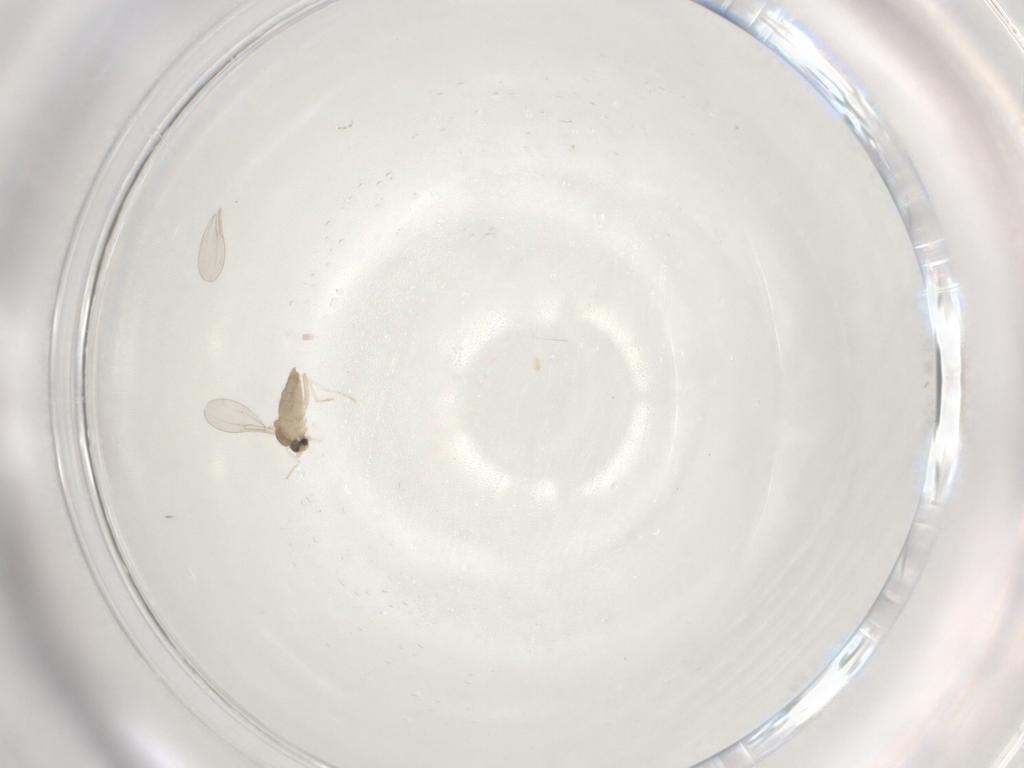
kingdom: Animalia
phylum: Arthropoda
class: Insecta
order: Diptera
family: Cecidomyiidae
